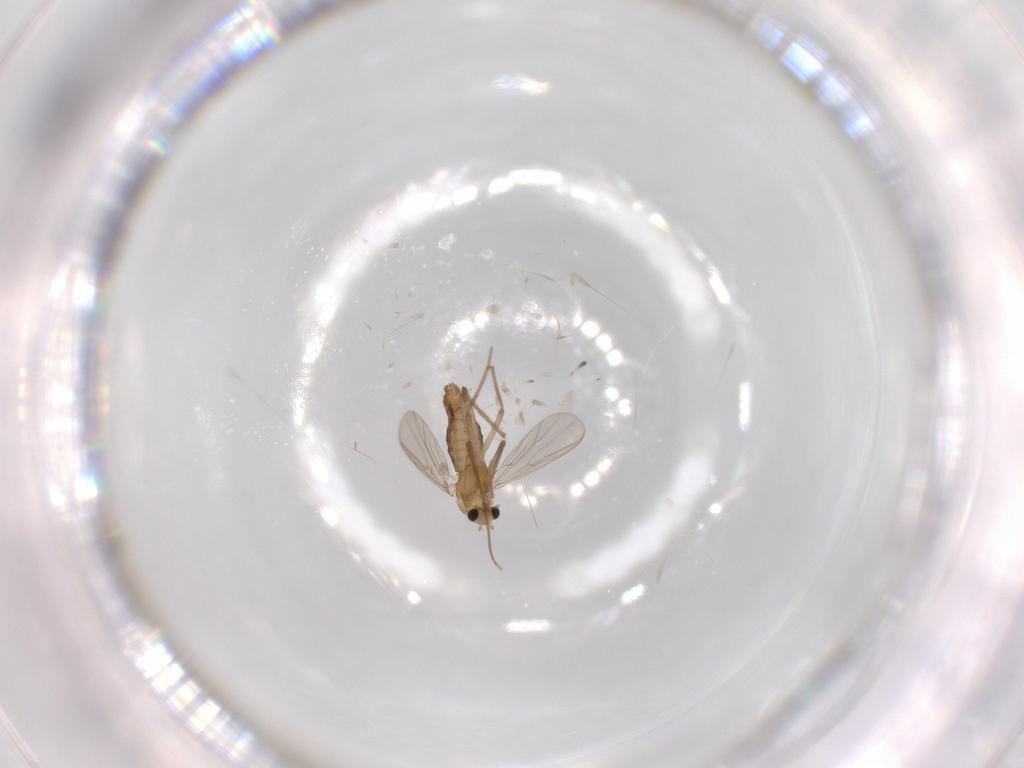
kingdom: Animalia
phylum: Arthropoda
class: Insecta
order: Diptera
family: Chironomidae
